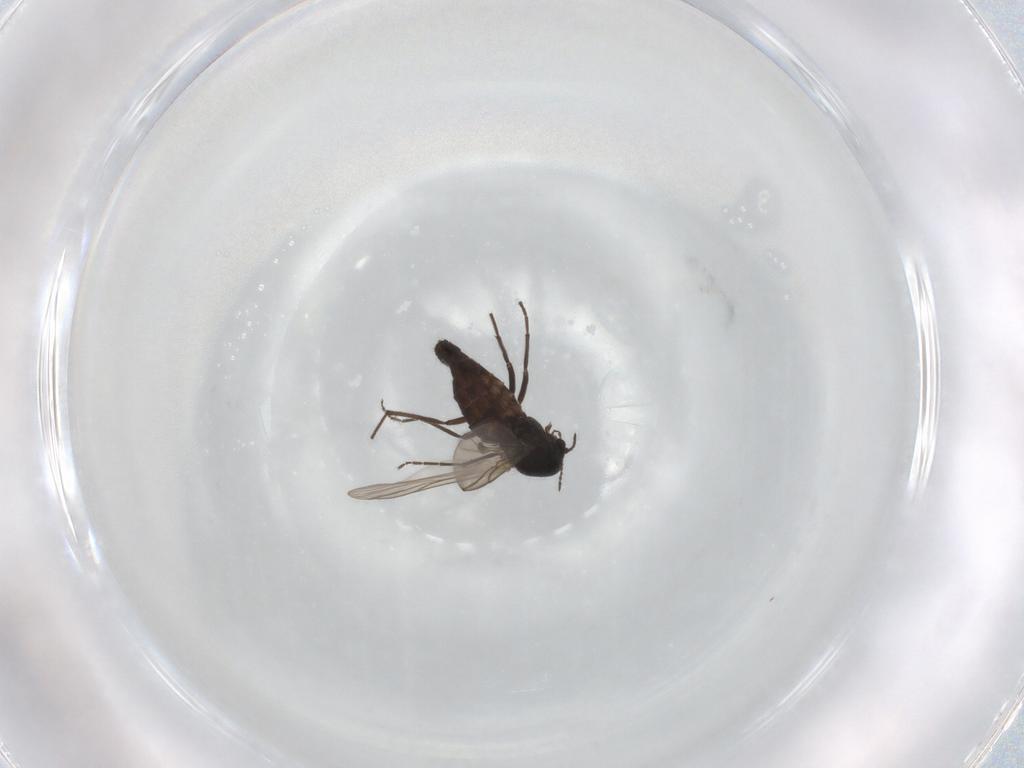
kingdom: Animalia
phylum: Arthropoda
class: Insecta
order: Diptera
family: Chironomidae
